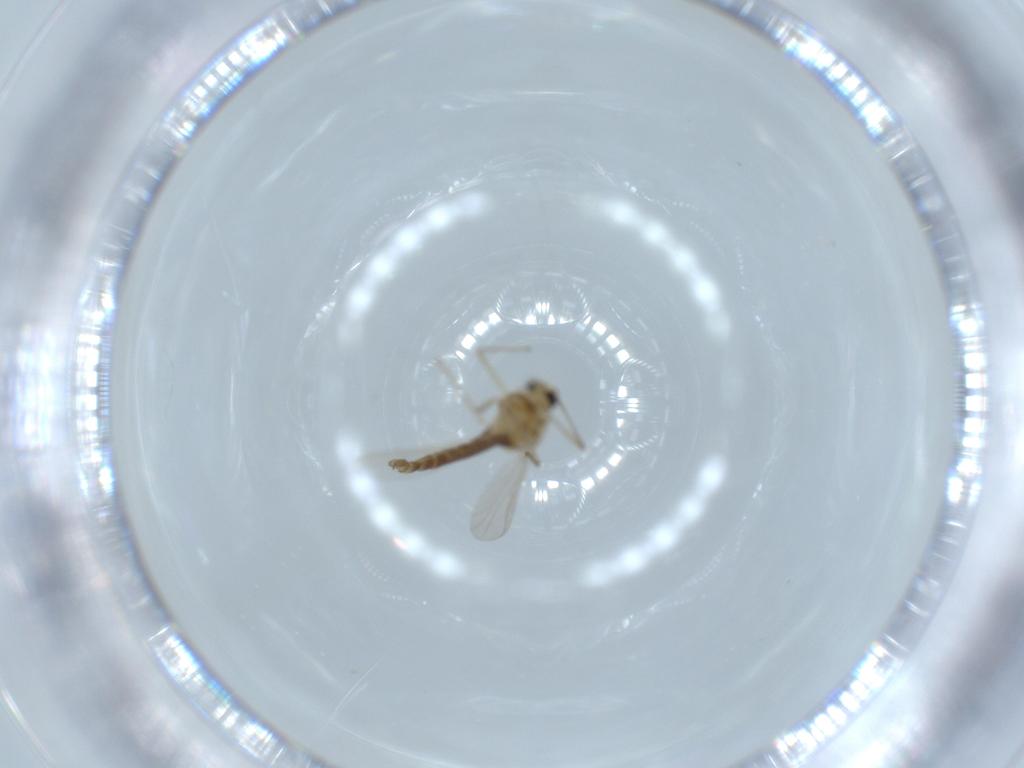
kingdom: Animalia
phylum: Arthropoda
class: Insecta
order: Diptera
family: Chironomidae
